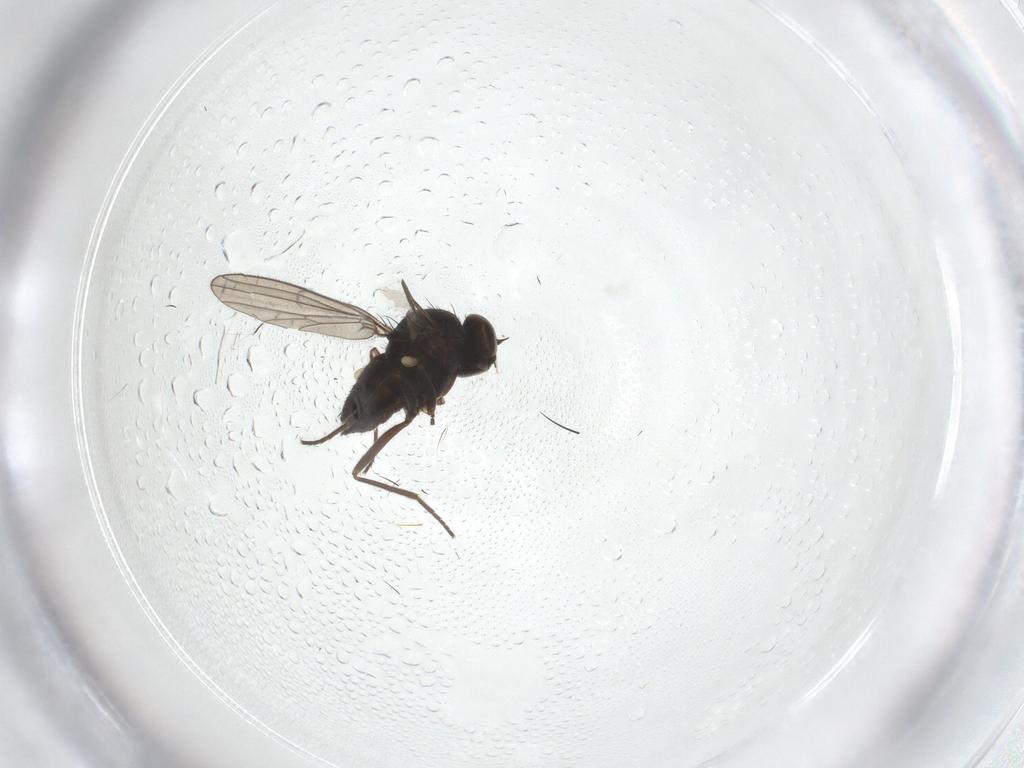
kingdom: Animalia
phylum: Arthropoda
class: Insecta
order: Diptera
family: Dolichopodidae
